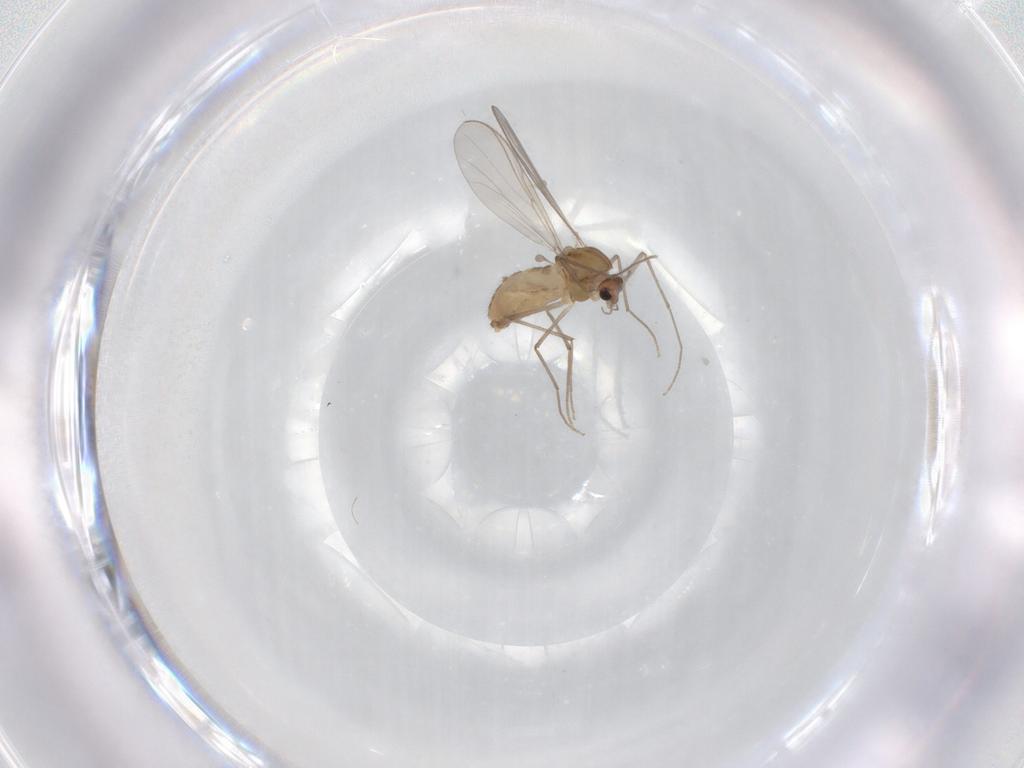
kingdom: Animalia
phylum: Arthropoda
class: Insecta
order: Diptera
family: Chironomidae
